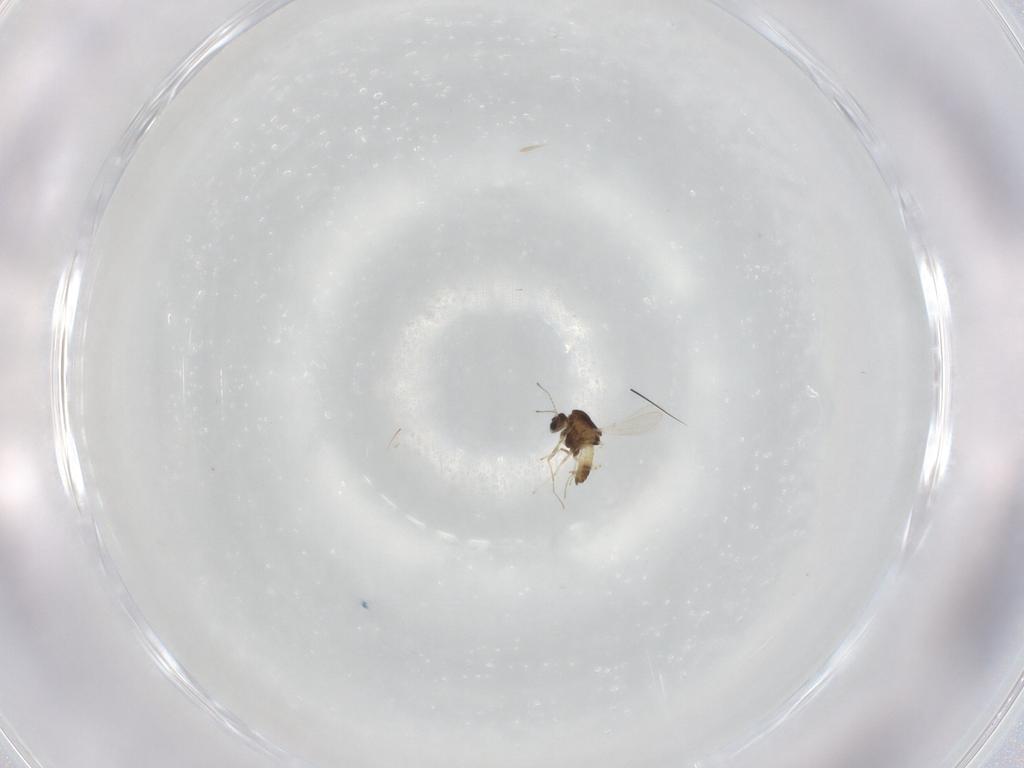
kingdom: Animalia
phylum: Arthropoda
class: Insecta
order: Diptera
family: Chironomidae
